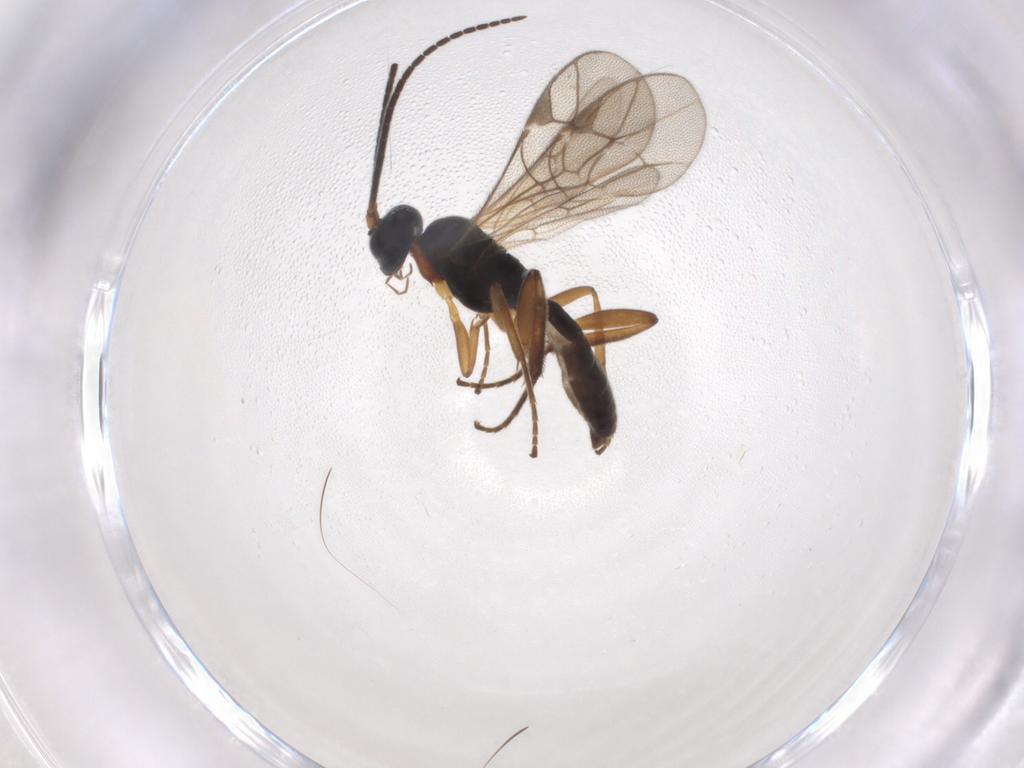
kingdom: Animalia
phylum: Arthropoda
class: Insecta
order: Hymenoptera
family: Ichneumonidae
